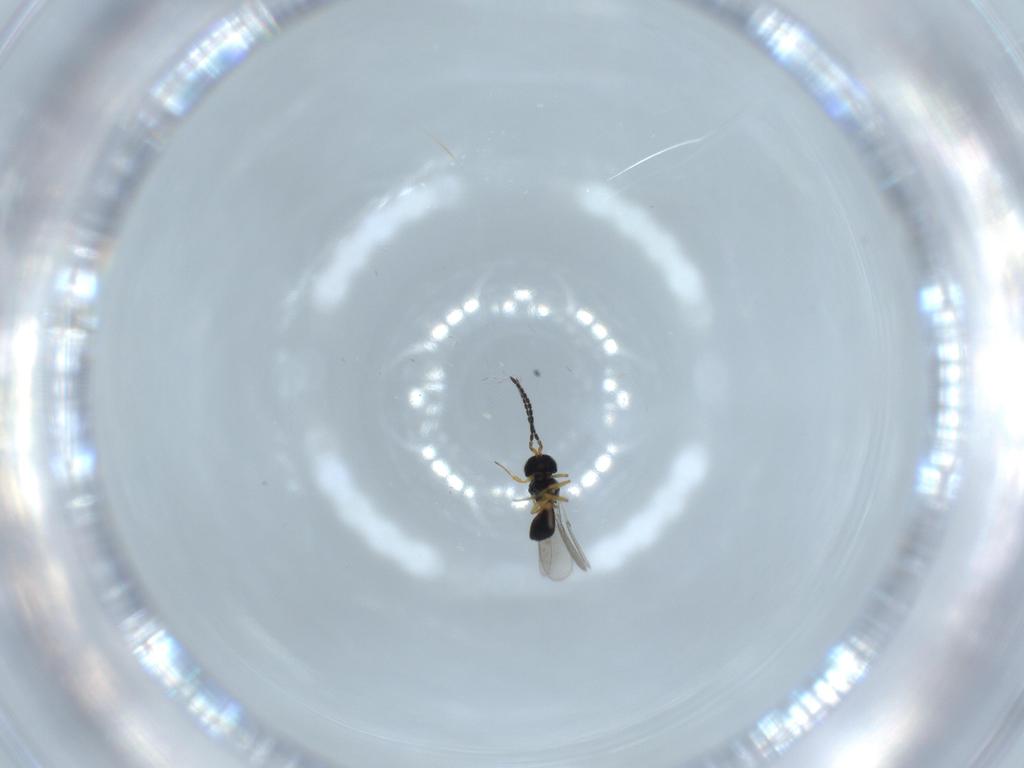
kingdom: Animalia
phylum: Arthropoda
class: Insecta
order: Hymenoptera
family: Scelionidae
